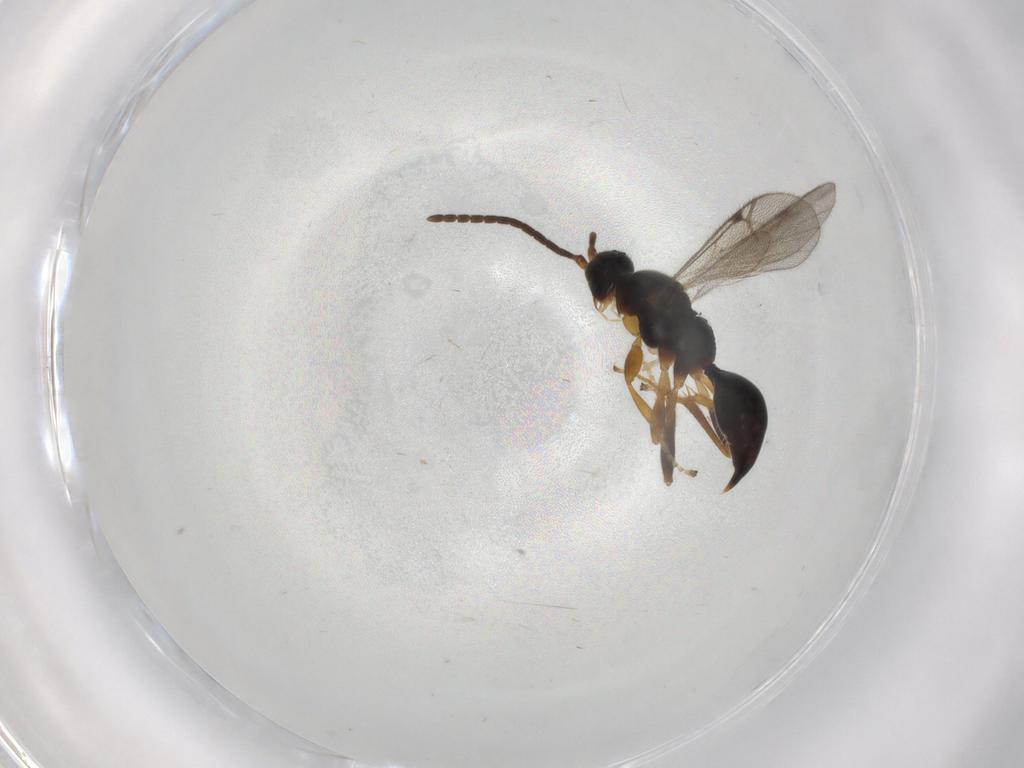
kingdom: Animalia
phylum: Arthropoda
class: Insecta
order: Hymenoptera
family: Proctotrupidae
